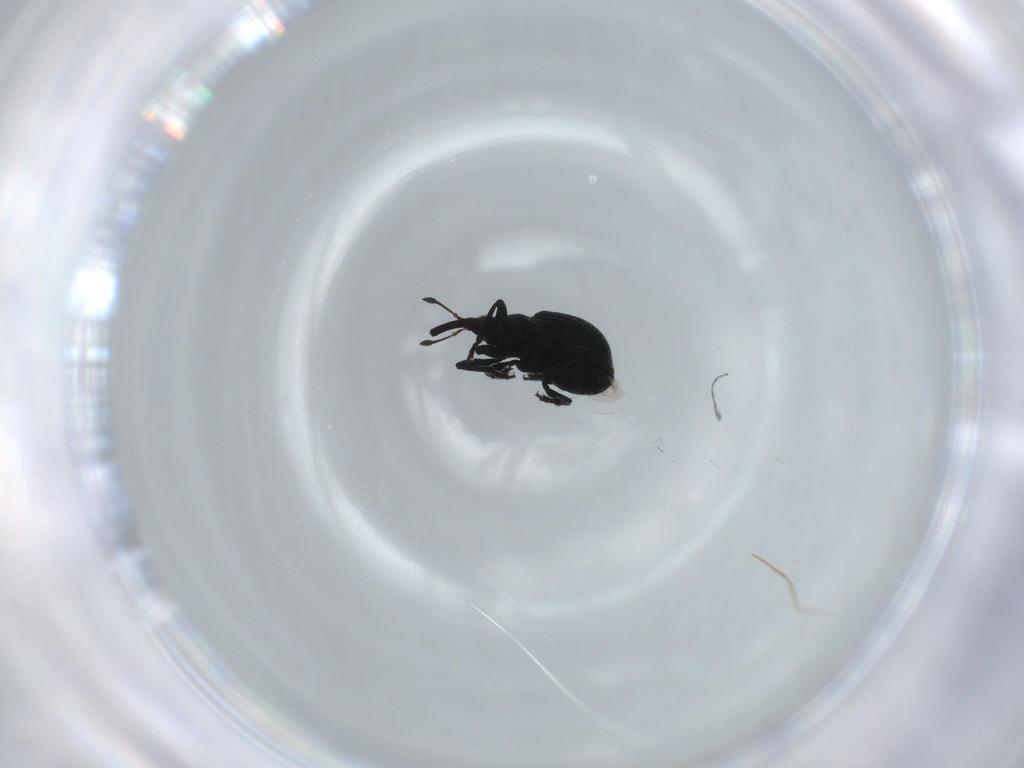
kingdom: Animalia
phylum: Arthropoda
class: Insecta
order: Coleoptera
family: Brentidae
